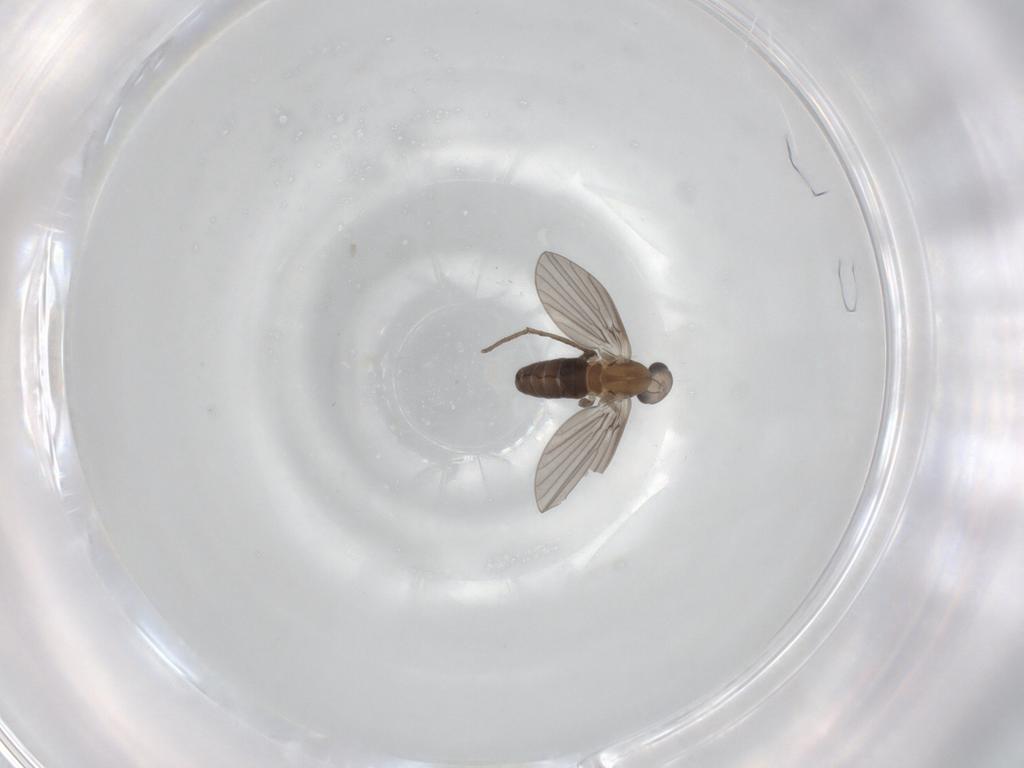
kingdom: Animalia
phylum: Arthropoda
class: Insecta
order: Diptera
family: Psychodidae
